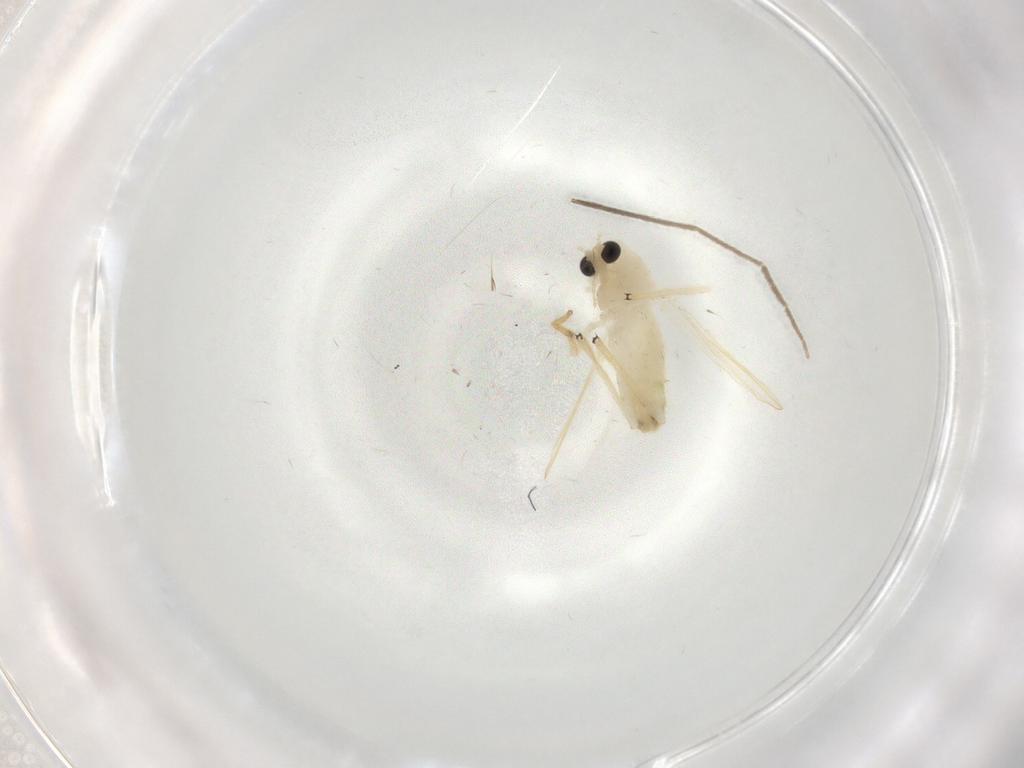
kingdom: Animalia
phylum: Arthropoda
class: Insecta
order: Diptera
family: Chironomidae
